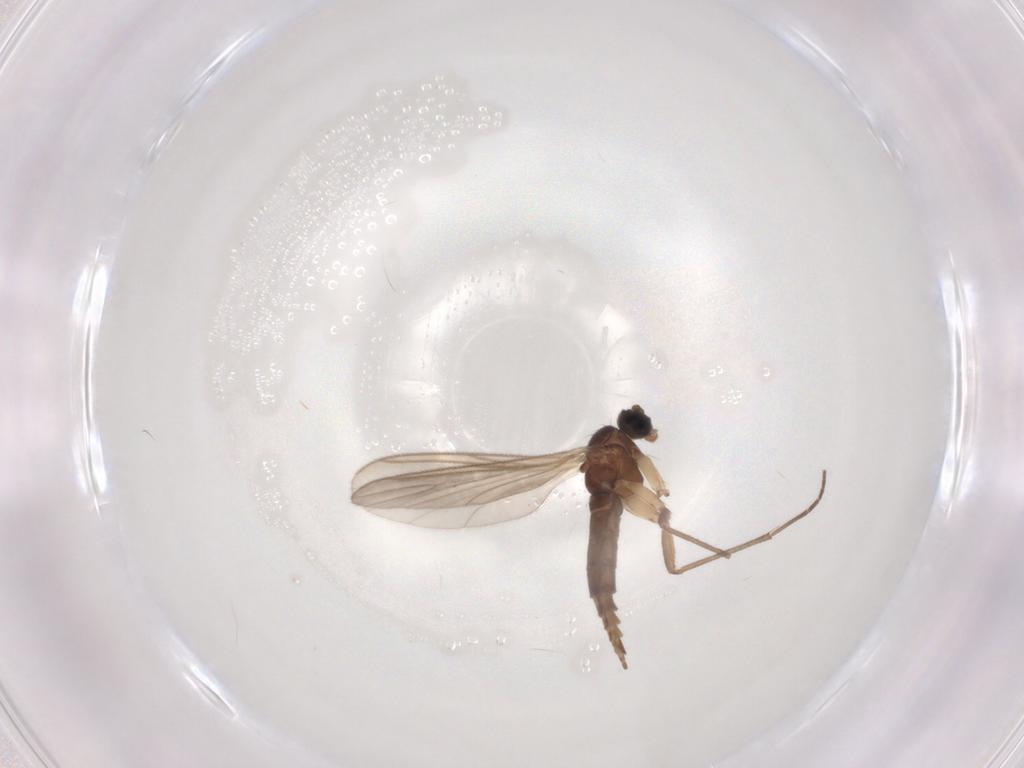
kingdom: Animalia
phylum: Arthropoda
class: Insecta
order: Diptera
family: Sciaridae
